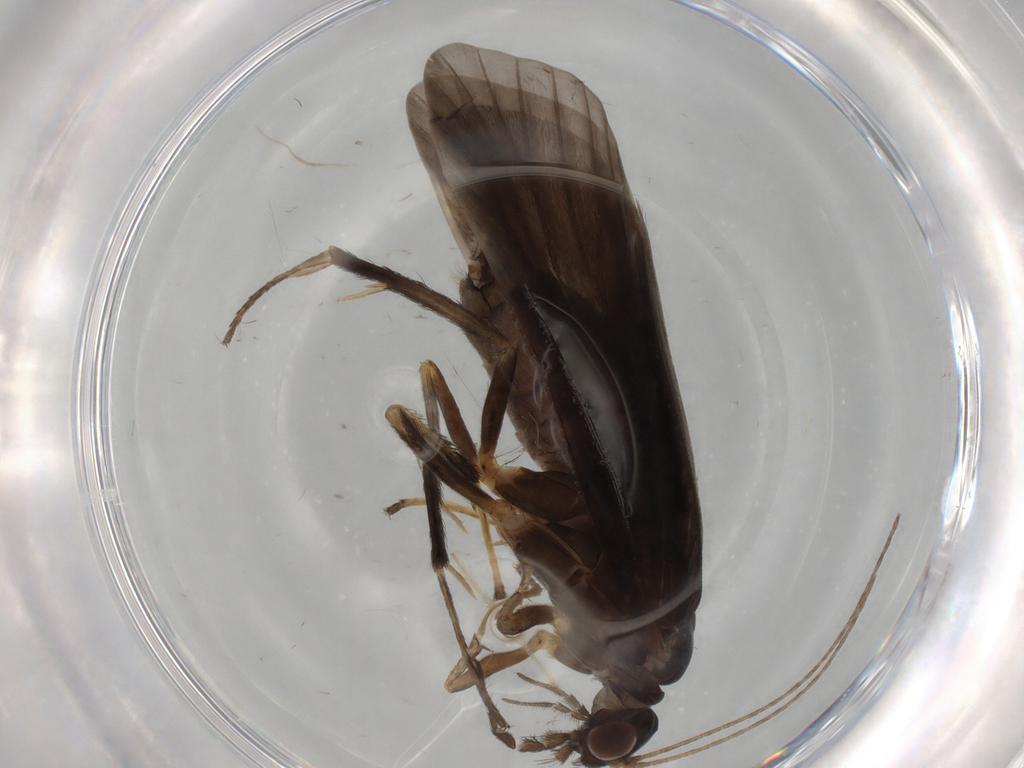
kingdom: Animalia
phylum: Arthropoda
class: Insecta
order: Trichoptera
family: Hydropsychidae
